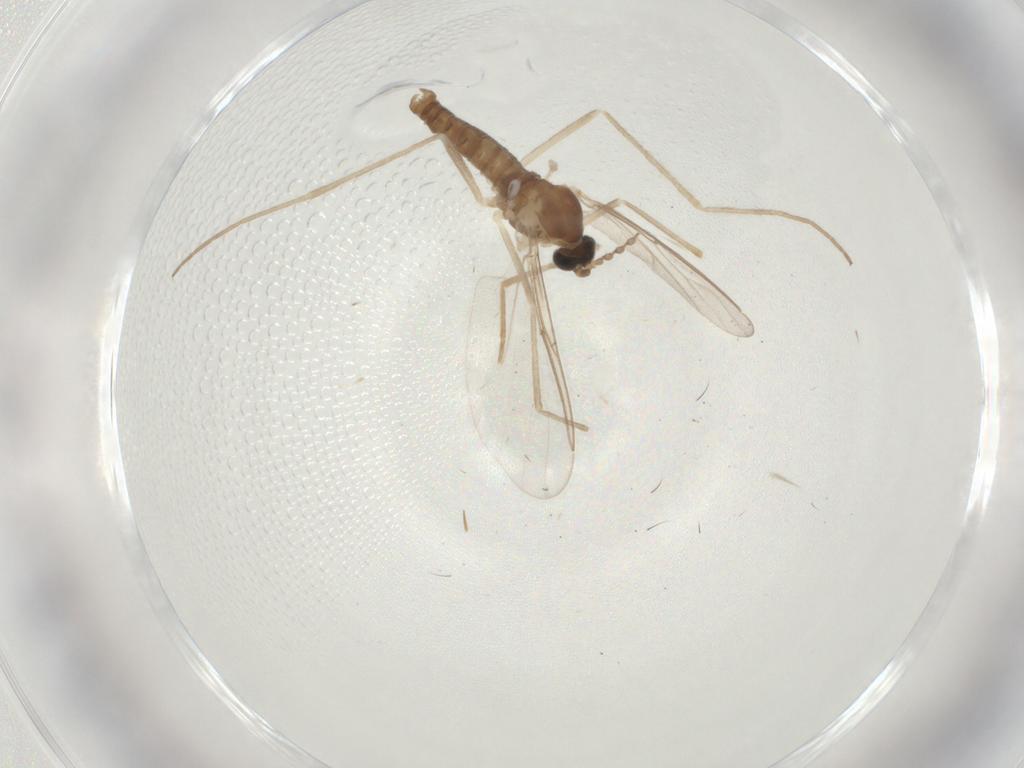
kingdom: Animalia
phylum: Arthropoda
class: Insecta
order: Diptera
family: Cecidomyiidae
